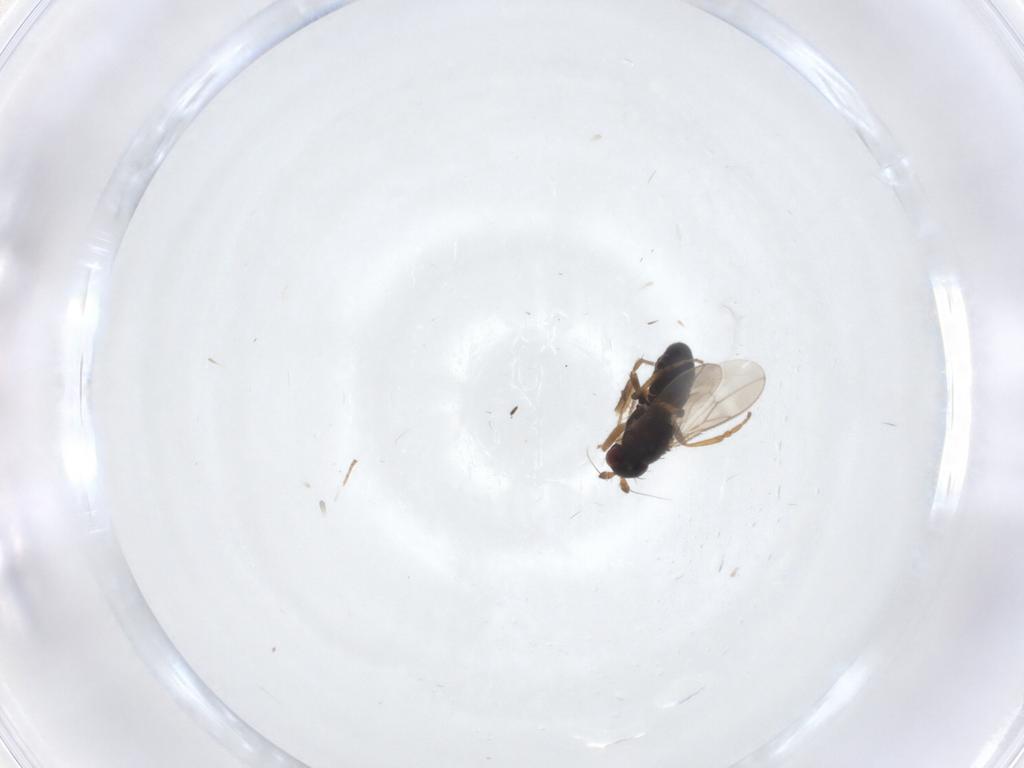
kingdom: Animalia
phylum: Arthropoda
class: Insecta
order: Diptera
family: Sphaeroceridae
